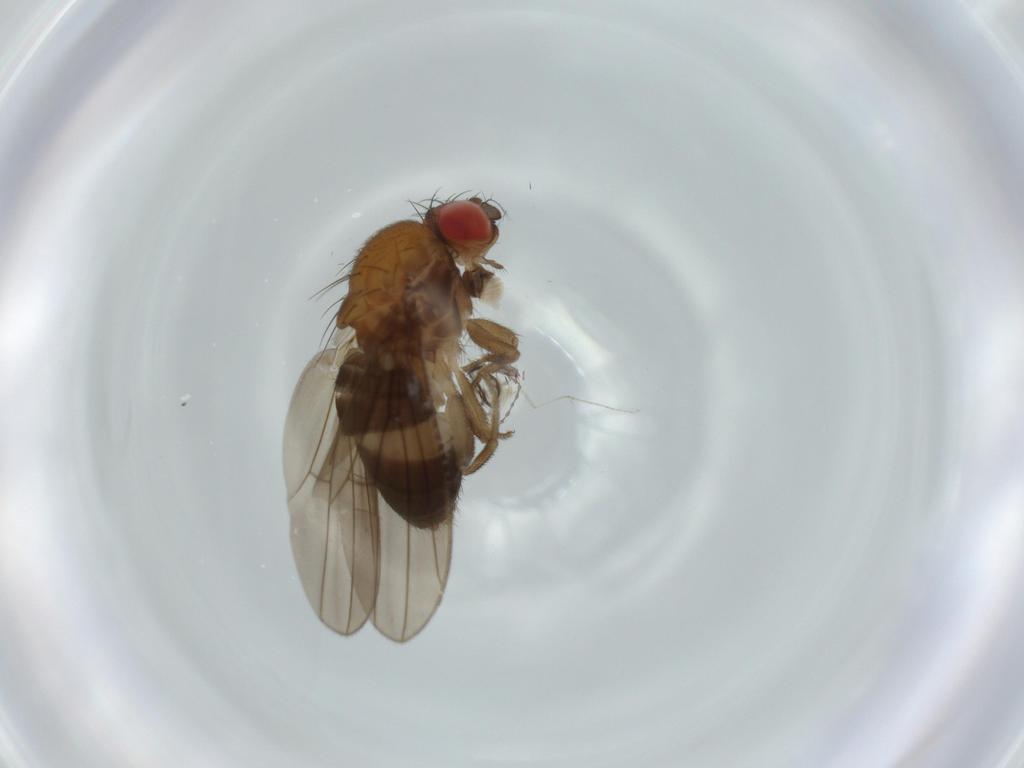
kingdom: Animalia
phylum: Arthropoda
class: Insecta
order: Diptera
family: Drosophilidae
